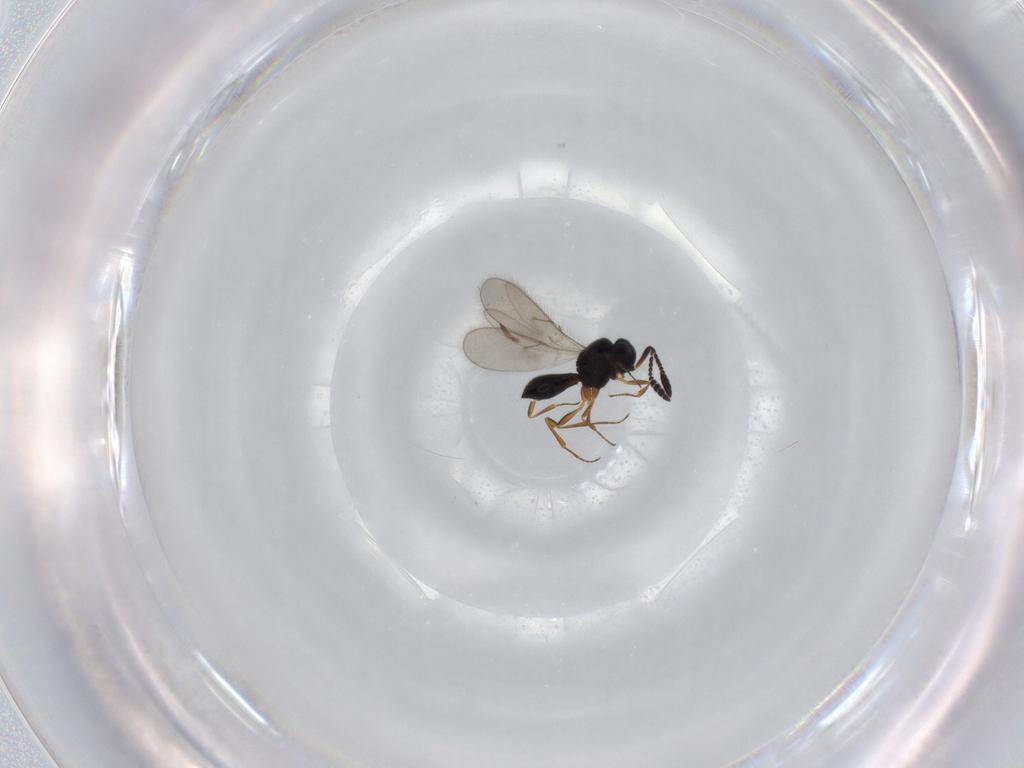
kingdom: Animalia
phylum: Arthropoda
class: Insecta
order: Hymenoptera
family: Scelionidae
